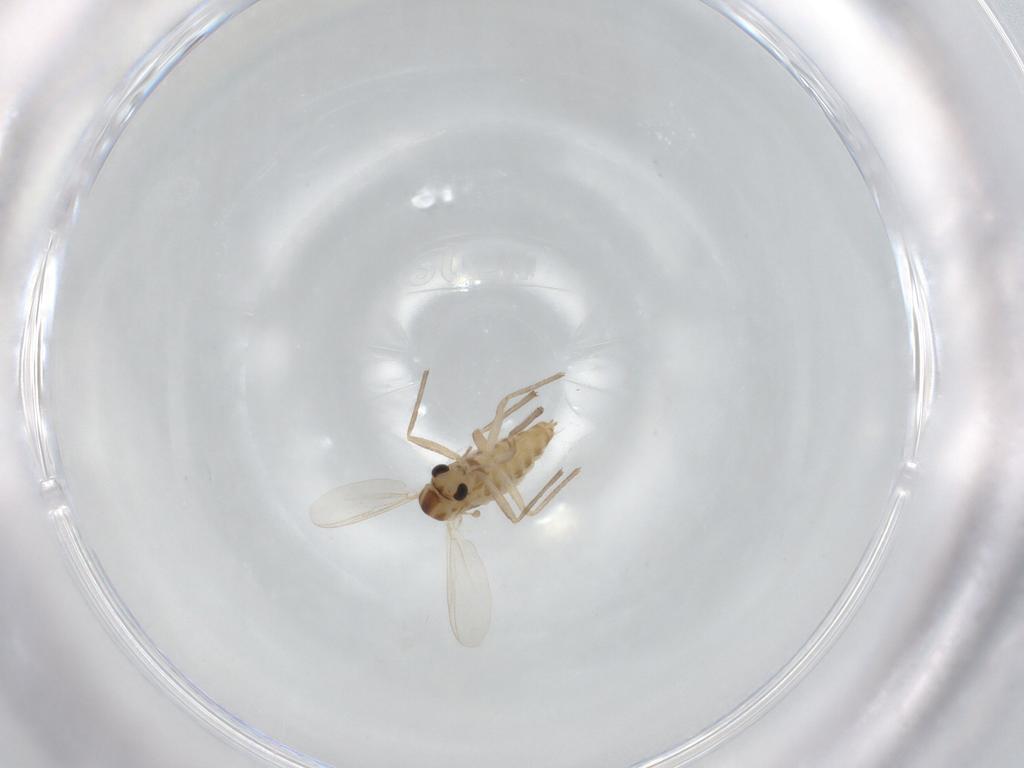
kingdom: Animalia
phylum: Arthropoda
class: Insecta
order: Diptera
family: Chironomidae
